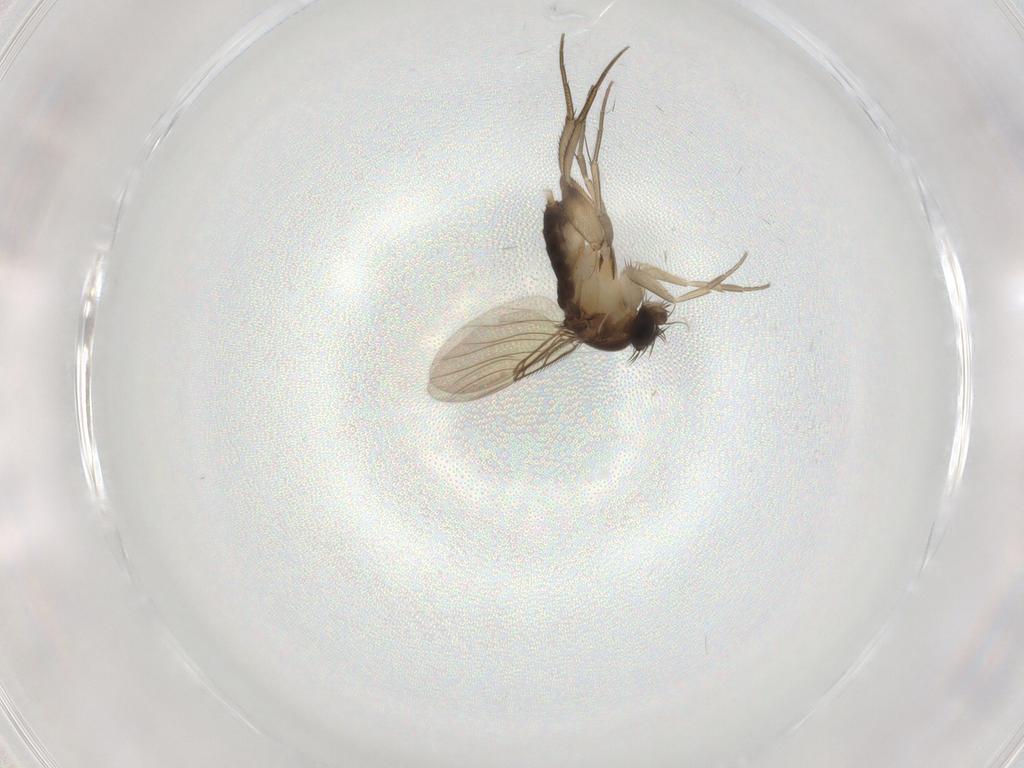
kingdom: Animalia
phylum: Arthropoda
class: Insecta
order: Diptera
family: Phoridae
